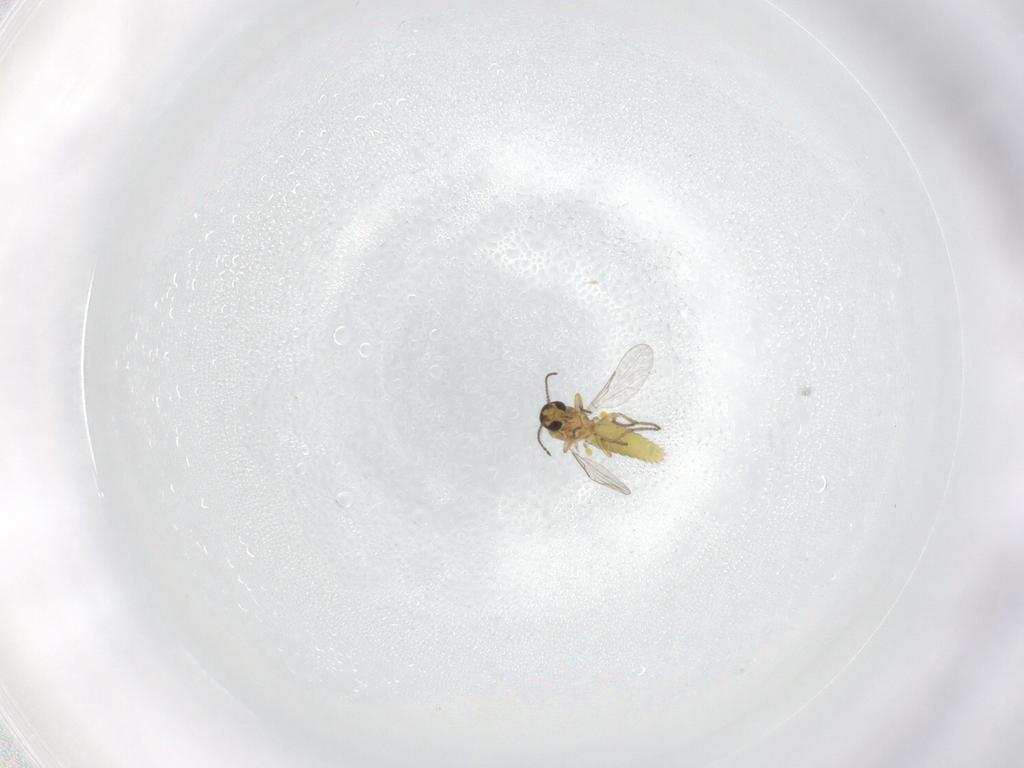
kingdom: Animalia
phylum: Arthropoda
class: Insecta
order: Diptera
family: Ceratopogonidae
